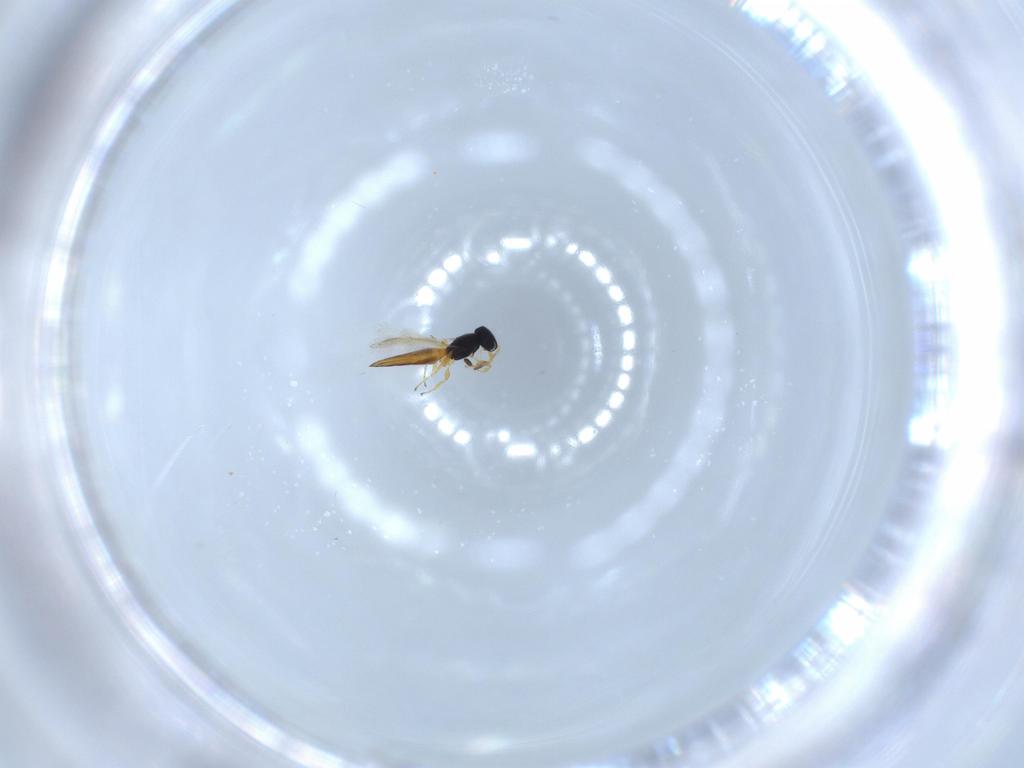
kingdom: Animalia
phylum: Arthropoda
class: Insecta
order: Hymenoptera
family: Scelionidae
